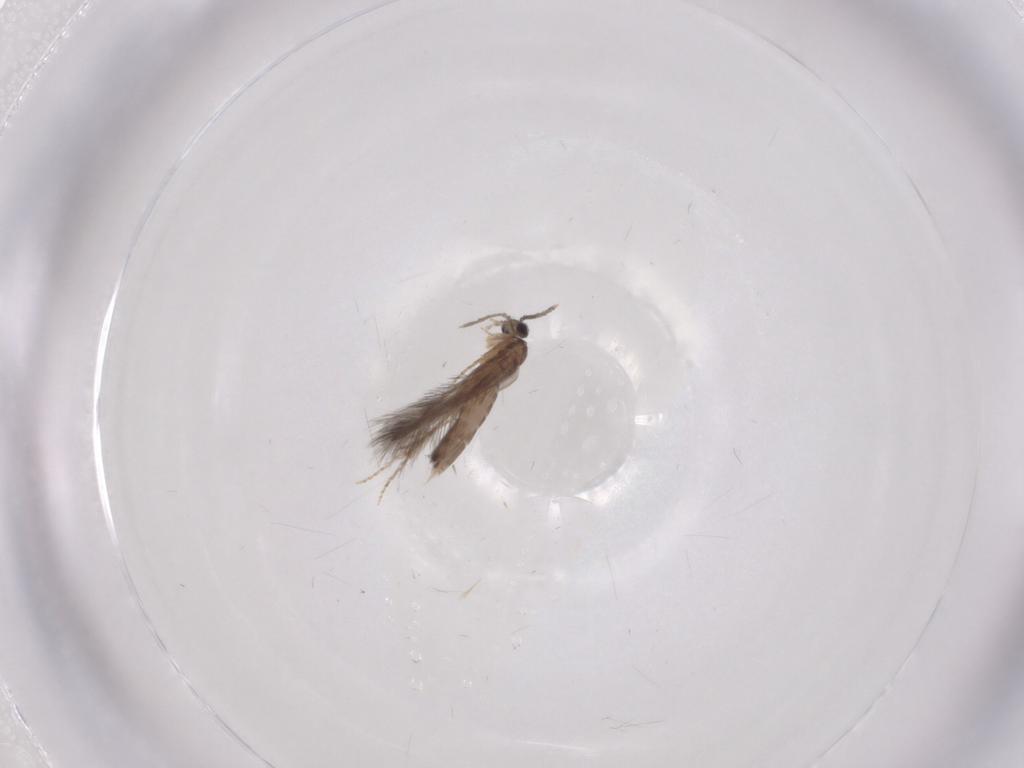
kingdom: Animalia
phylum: Arthropoda
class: Insecta
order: Trichoptera
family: Hydroptilidae
